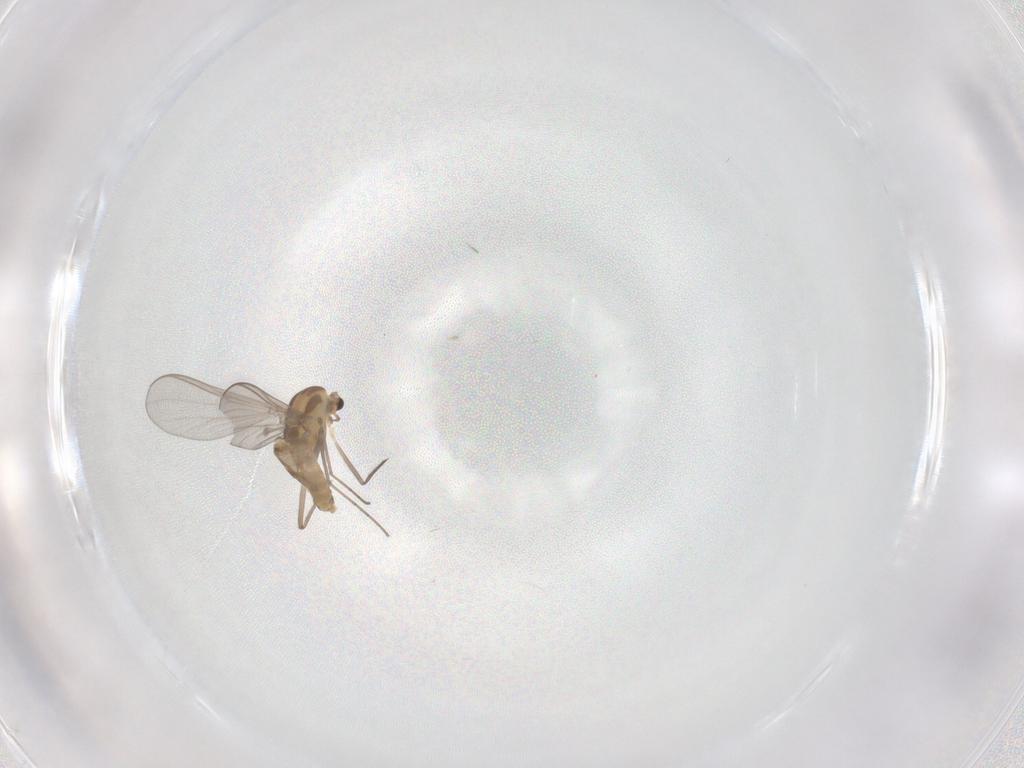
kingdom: Animalia
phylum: Arthropoda
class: Insecta
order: Diptera
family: Chironomidae
